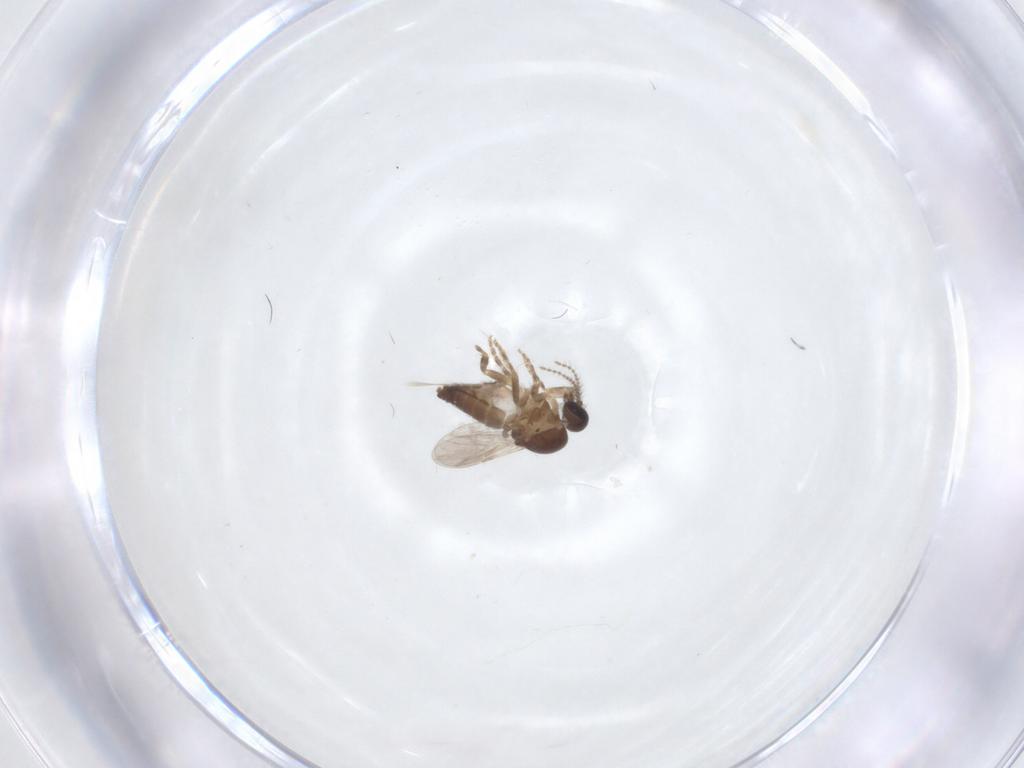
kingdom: Animalia
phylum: Arthropoda
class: Insecta
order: Diptera
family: Ceratopogonidae
